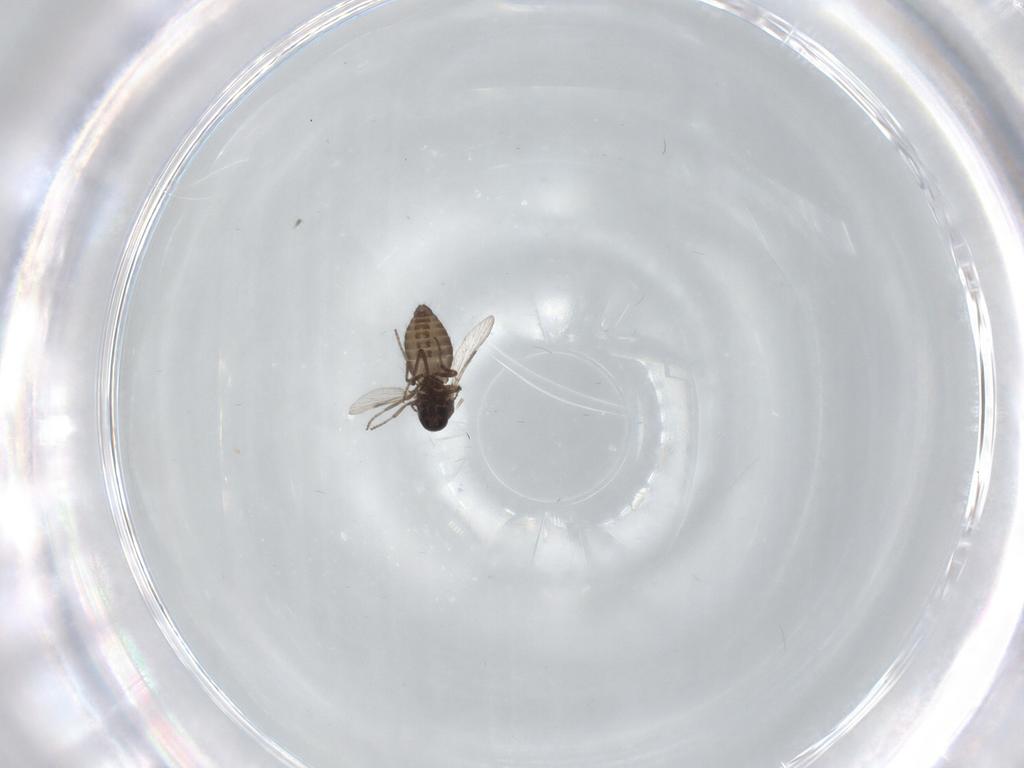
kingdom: Animalia
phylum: Arthropoda
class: Insecta
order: Diptera
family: Ceratopogonidae
